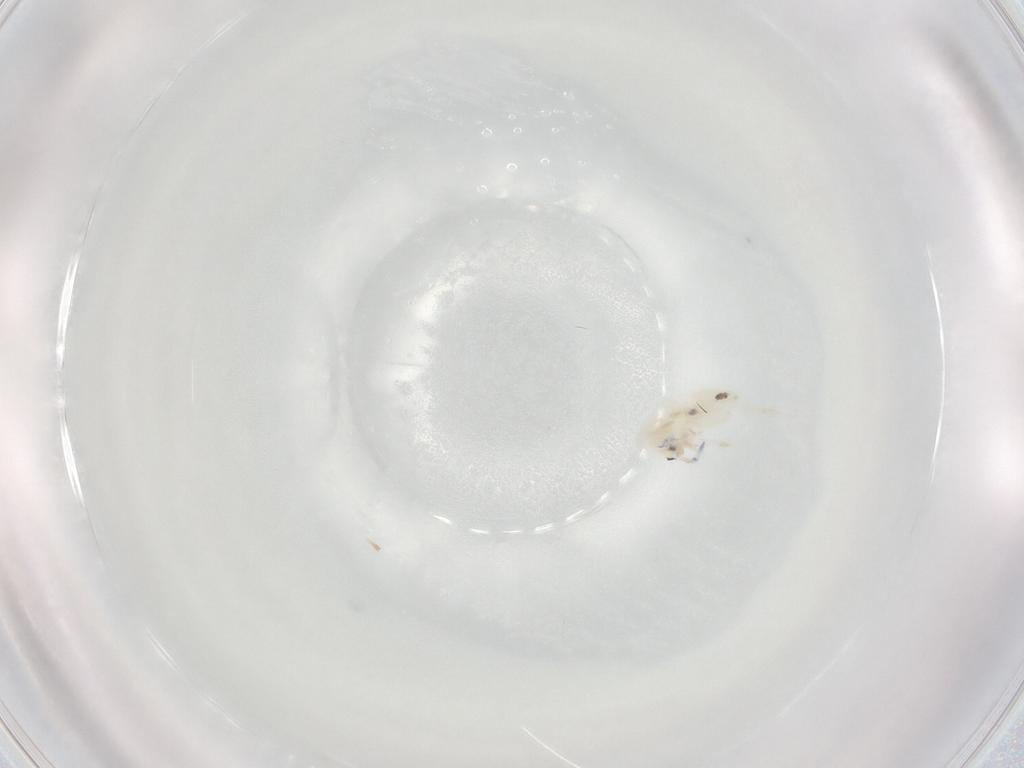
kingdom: Animalia
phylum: Arthropoda
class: Collembola
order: Entomobryomorpha
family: Entomobryidae
